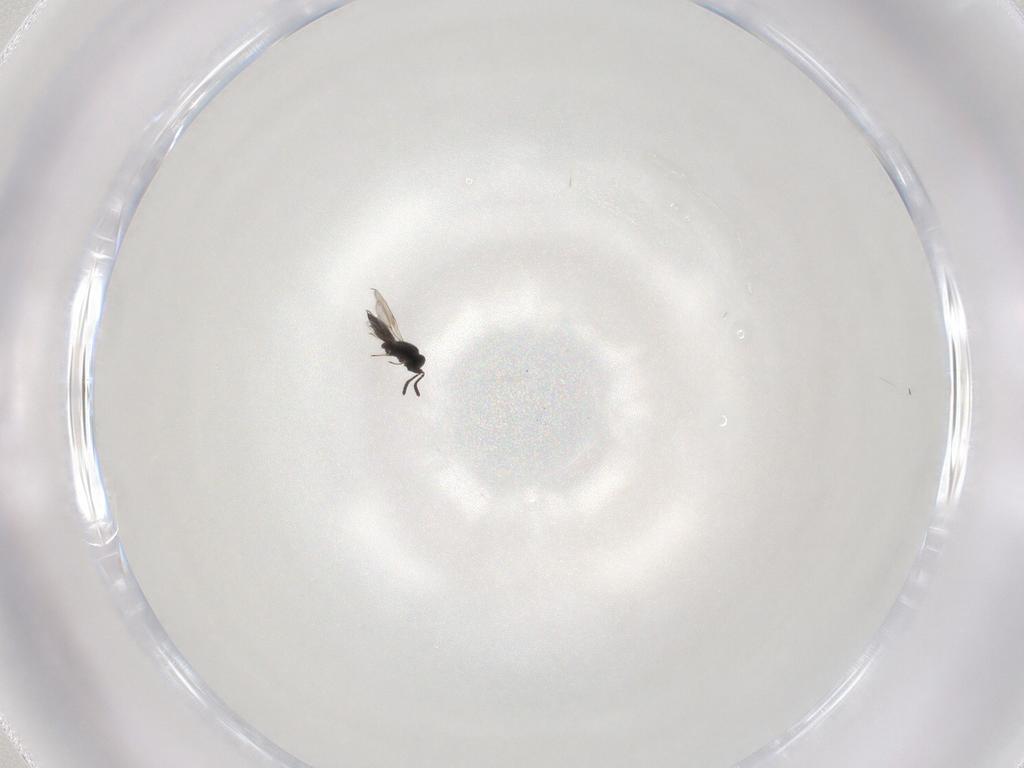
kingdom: Animalia
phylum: Arthropoda
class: Insecta
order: Hymenoptera
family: Scelionidae
